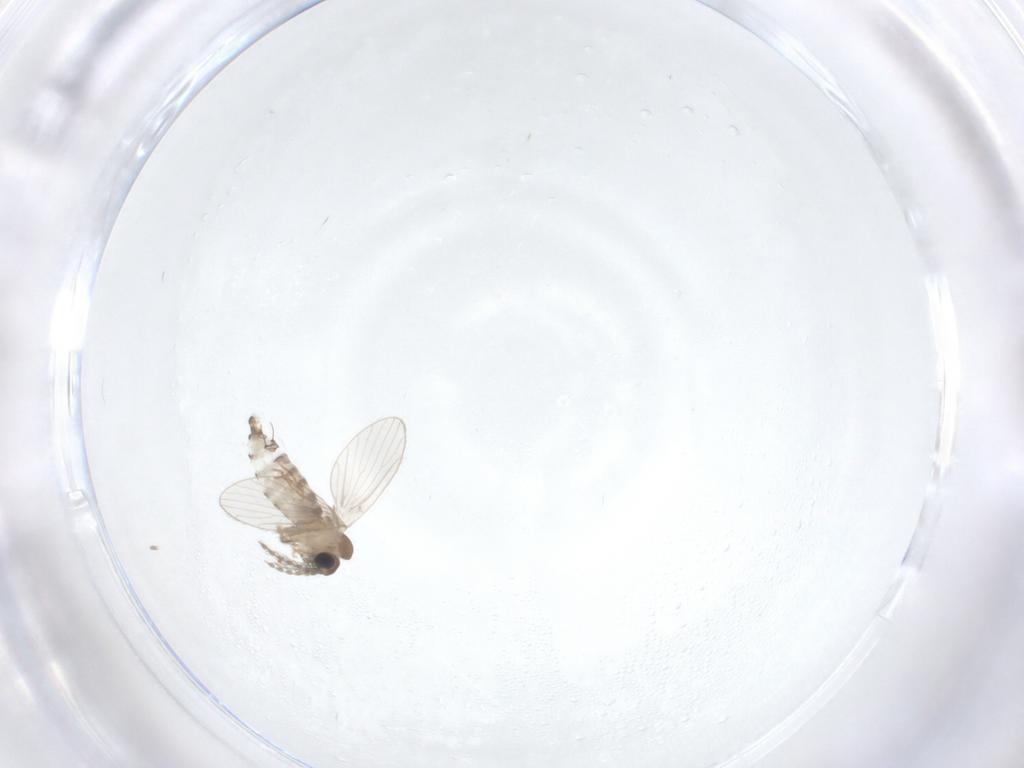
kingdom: Animalia
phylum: Arthropoda
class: Insecta
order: Diptera
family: Psychodidae
